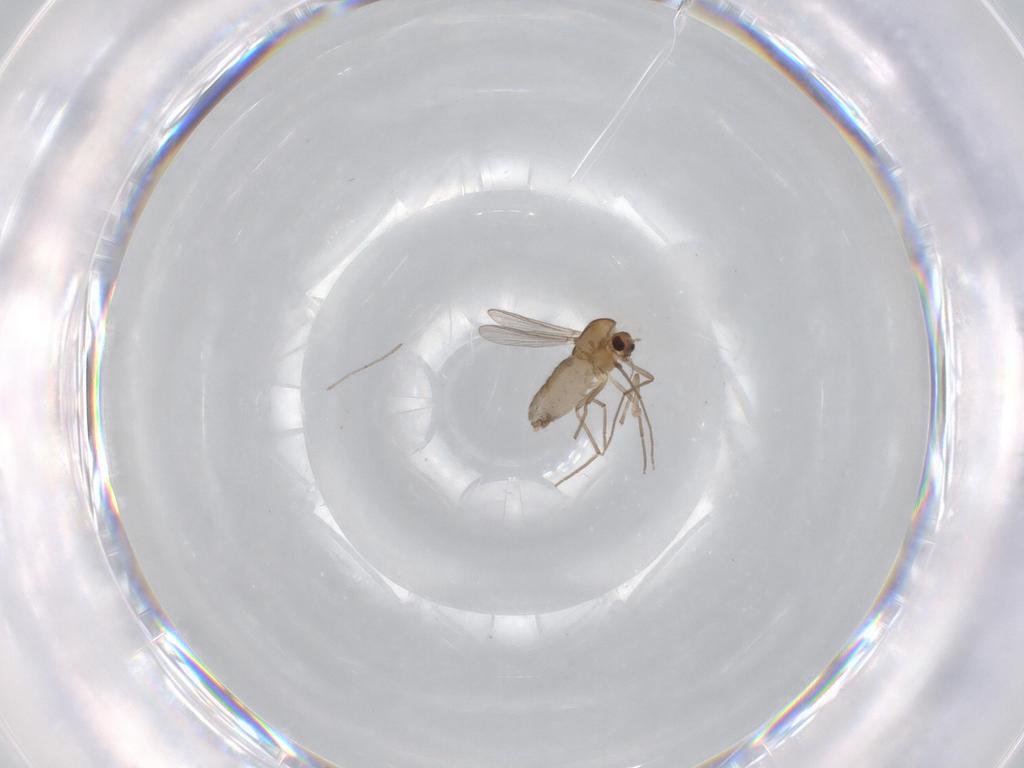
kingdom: Animalia
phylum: Arthropoda
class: Insecta
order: Diptera
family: Chironomidae
